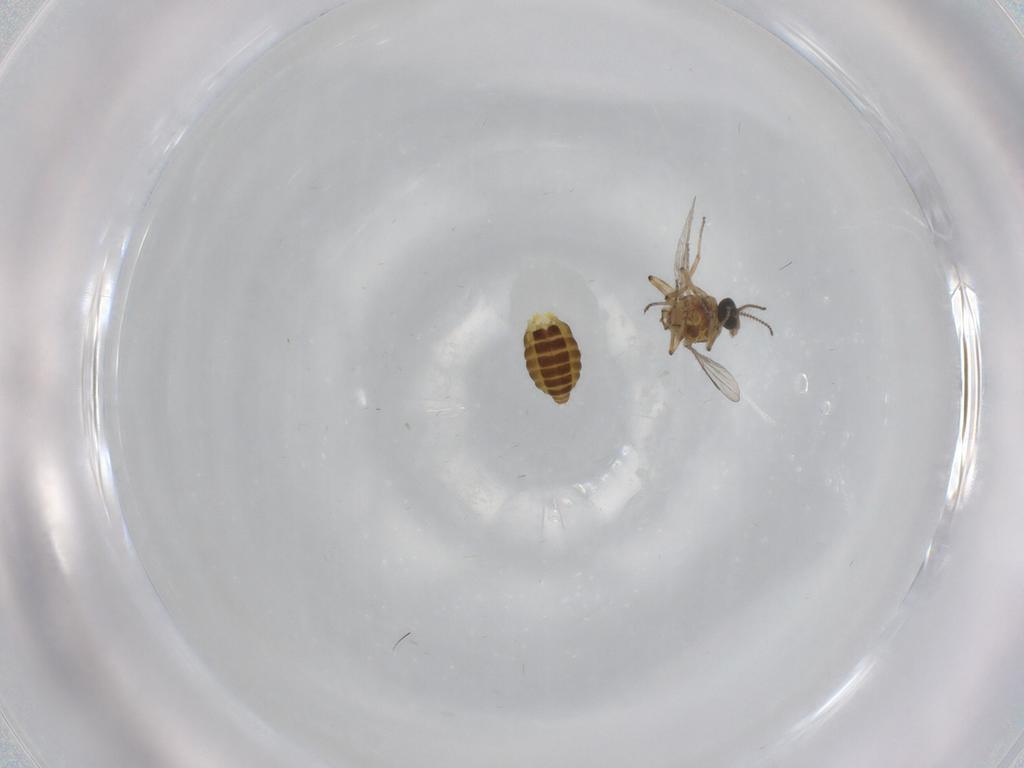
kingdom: Animalia
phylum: Arthropoda
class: Insecta
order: Diptera
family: Ceratopogonidae
